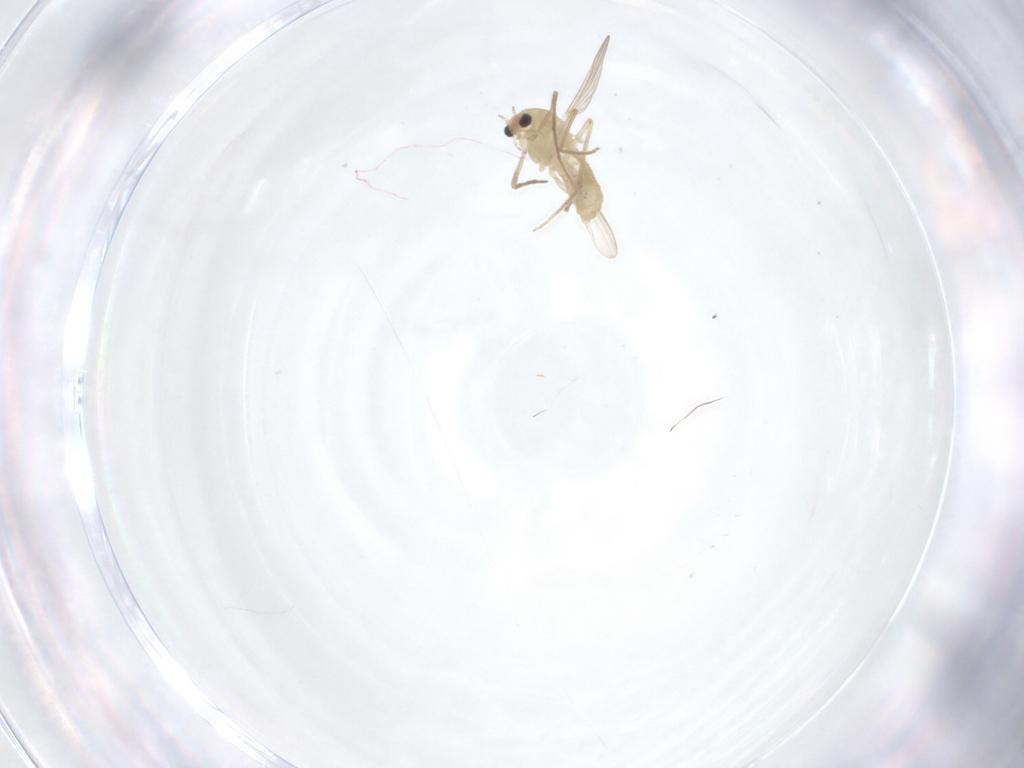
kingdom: Animalia
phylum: Arthropoda
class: Insecta
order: Diptera
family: Chironomidae
